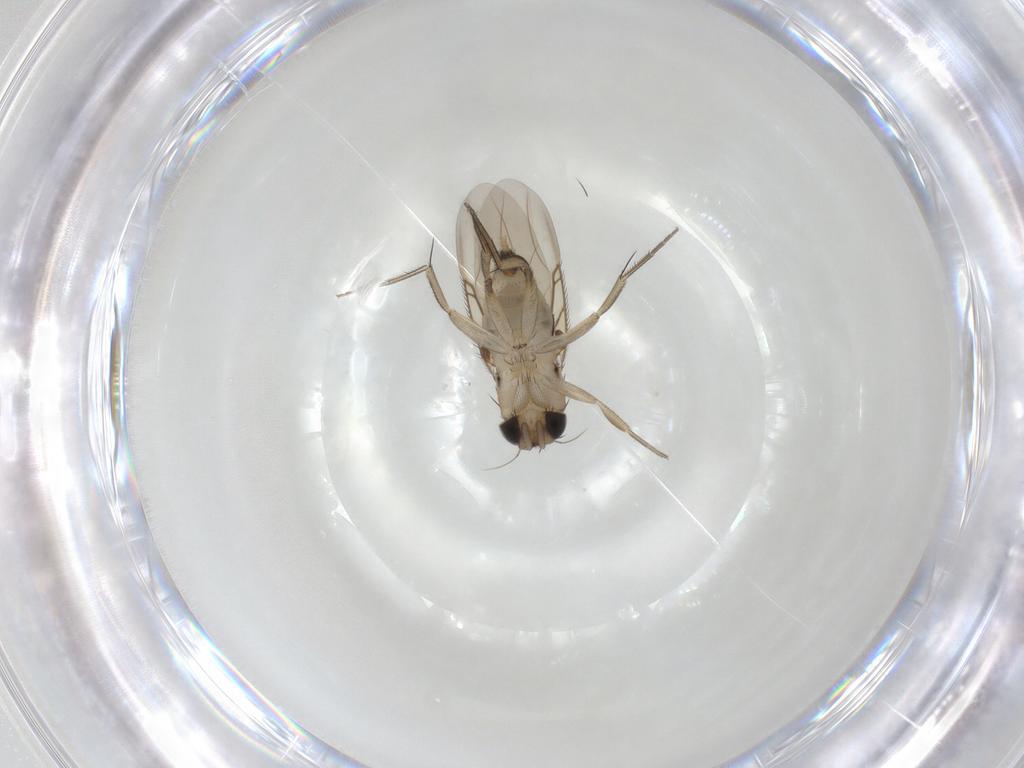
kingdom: Animalia
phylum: Arthropoda
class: Insecta
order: Diptera
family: Phoridae
